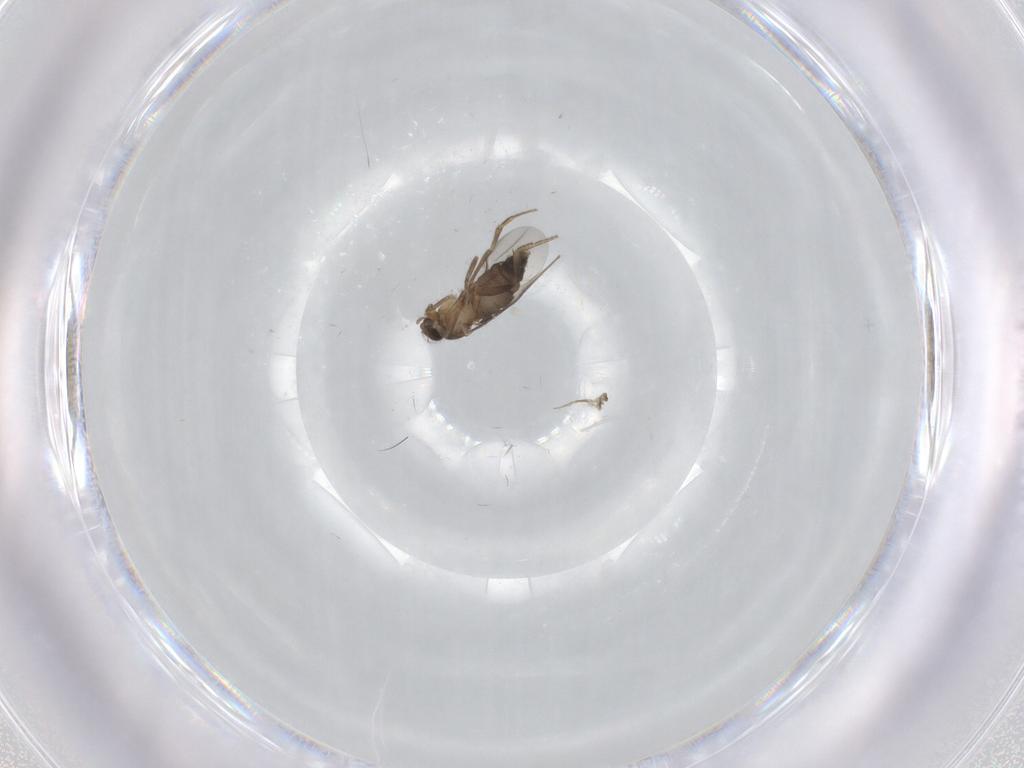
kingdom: Animalia
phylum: Arthropoda
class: Insecta
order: Diptera
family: Phoridae
